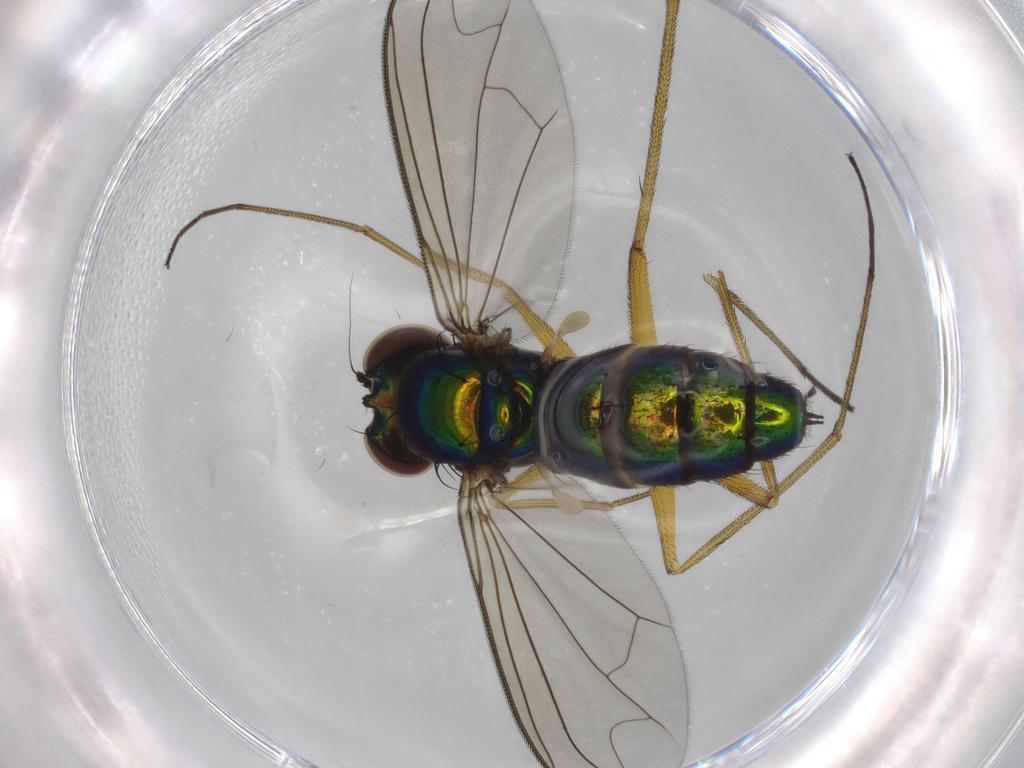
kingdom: Animalia
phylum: Arthropoda
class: Insecta
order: Diptera
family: Dolichopodidae
